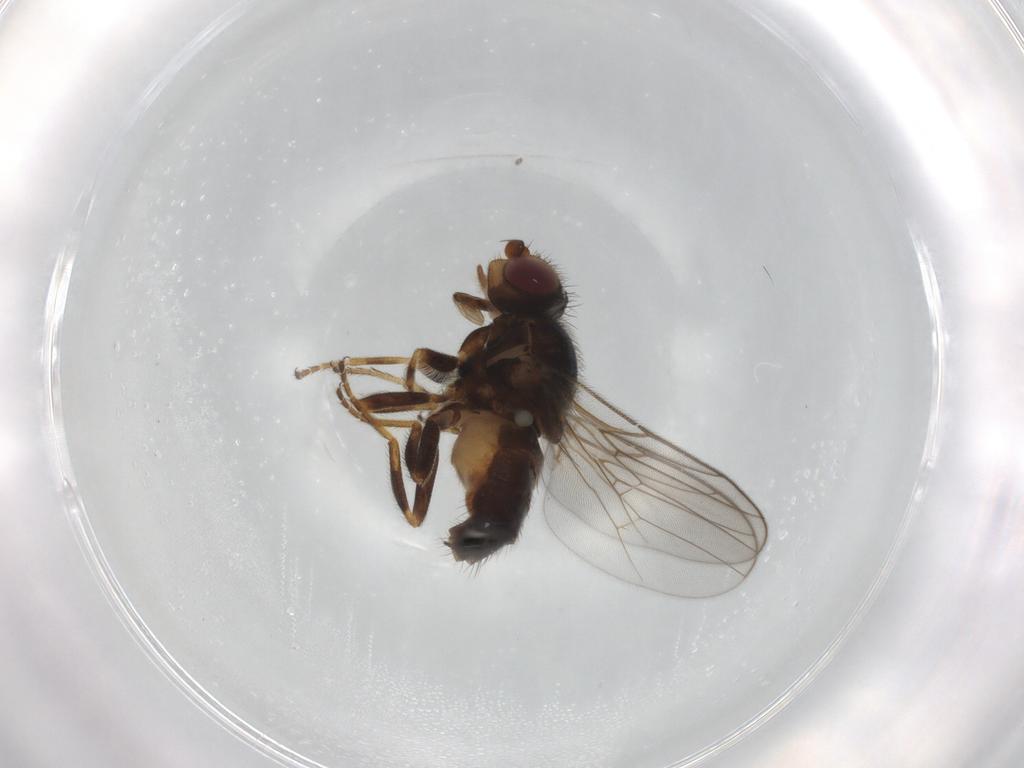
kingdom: Animalia
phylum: Arthropoda
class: Insecta
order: Diptera
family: Chloropidae
